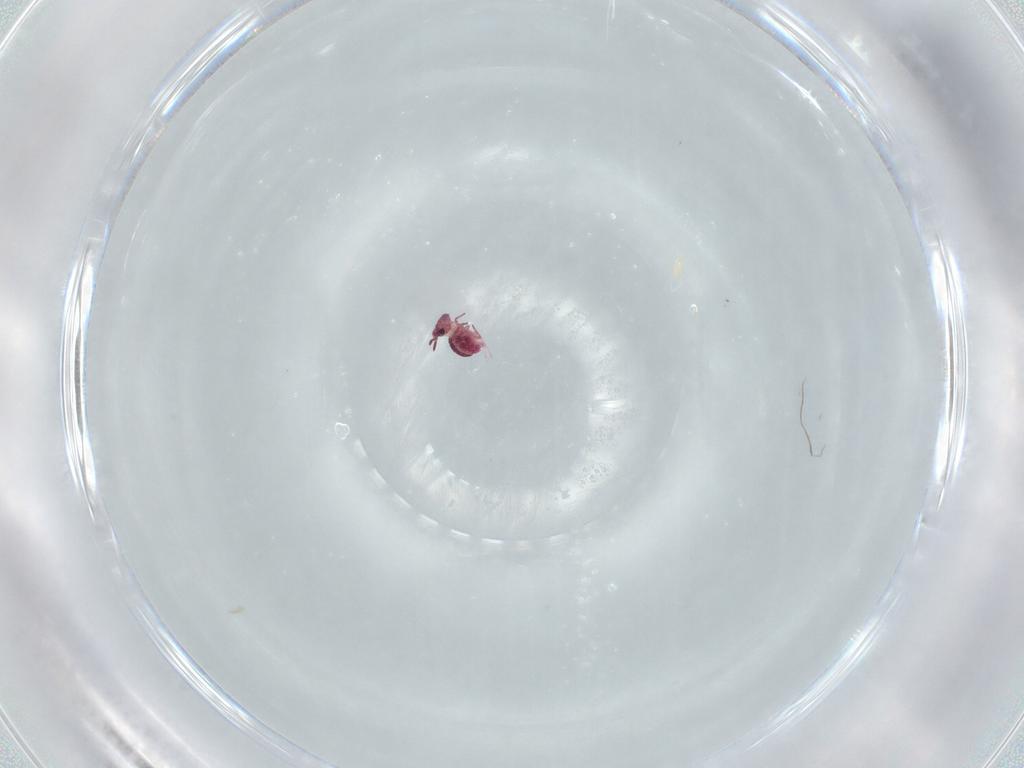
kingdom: Animalia
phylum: Arthropoda
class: Collembola
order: Symphypleona
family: Sminthurididae
